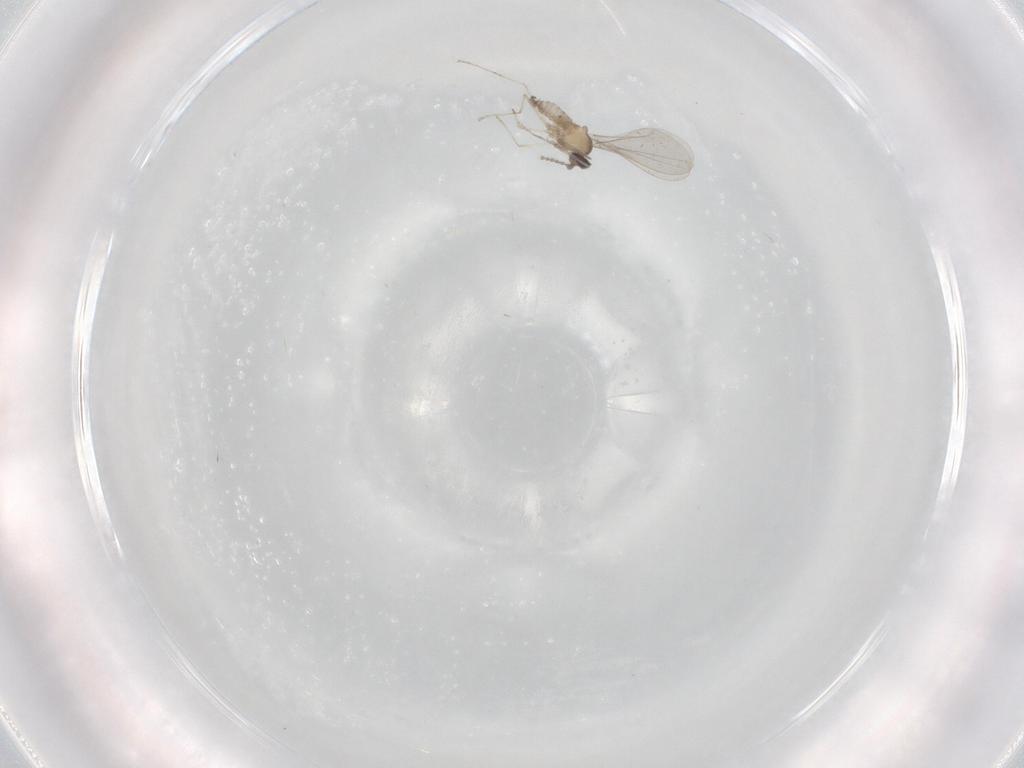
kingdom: Animalia
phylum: Arthropoda
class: Insecta
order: Diptera
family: Cecidomyiidae
